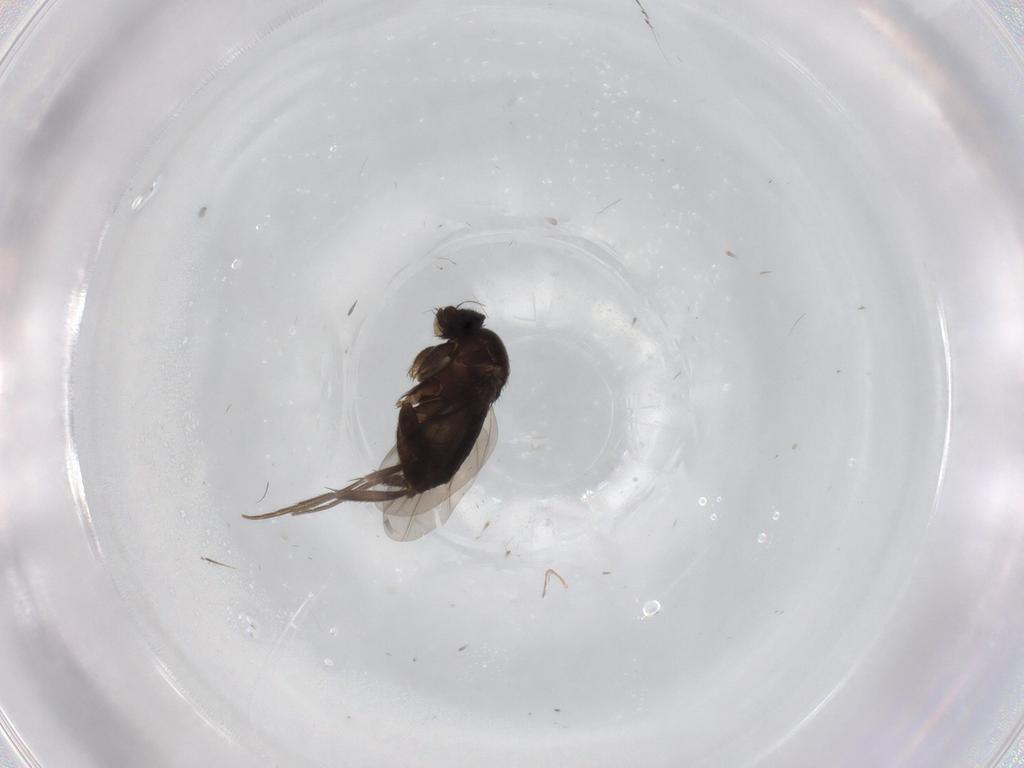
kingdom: Animalia
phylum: Arthropoda
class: Insecta
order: Diptera
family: Phoridae
